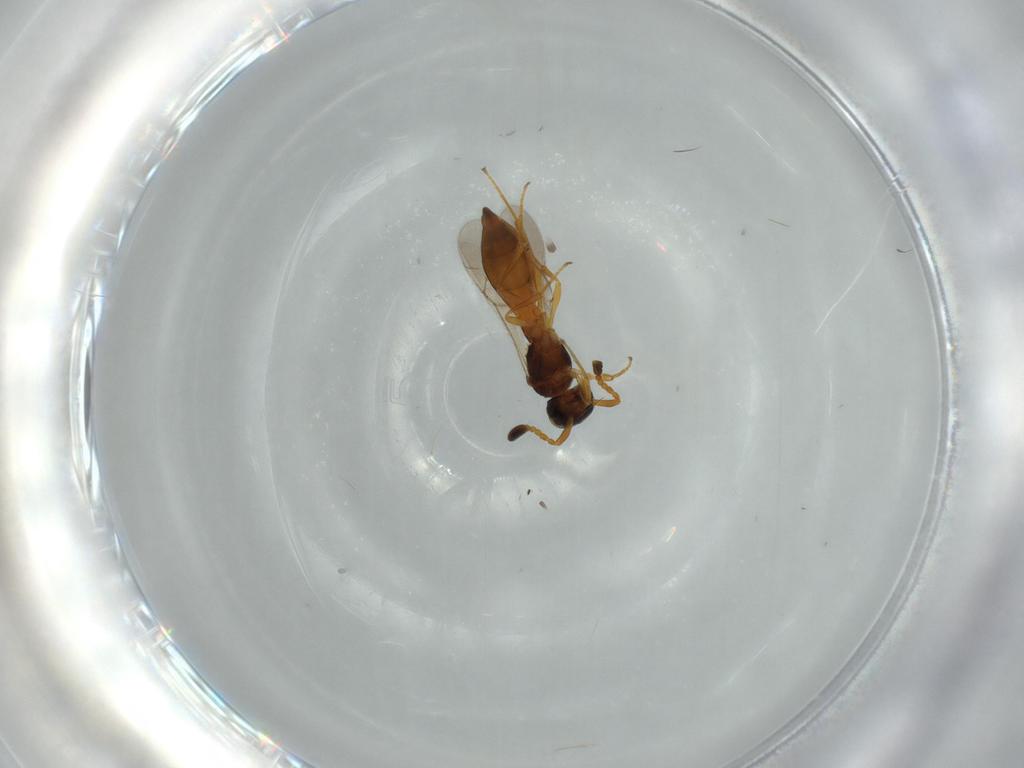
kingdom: Animalia
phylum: Arthropoda
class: Insecta
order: Hymenoptera
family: Scelionidae
